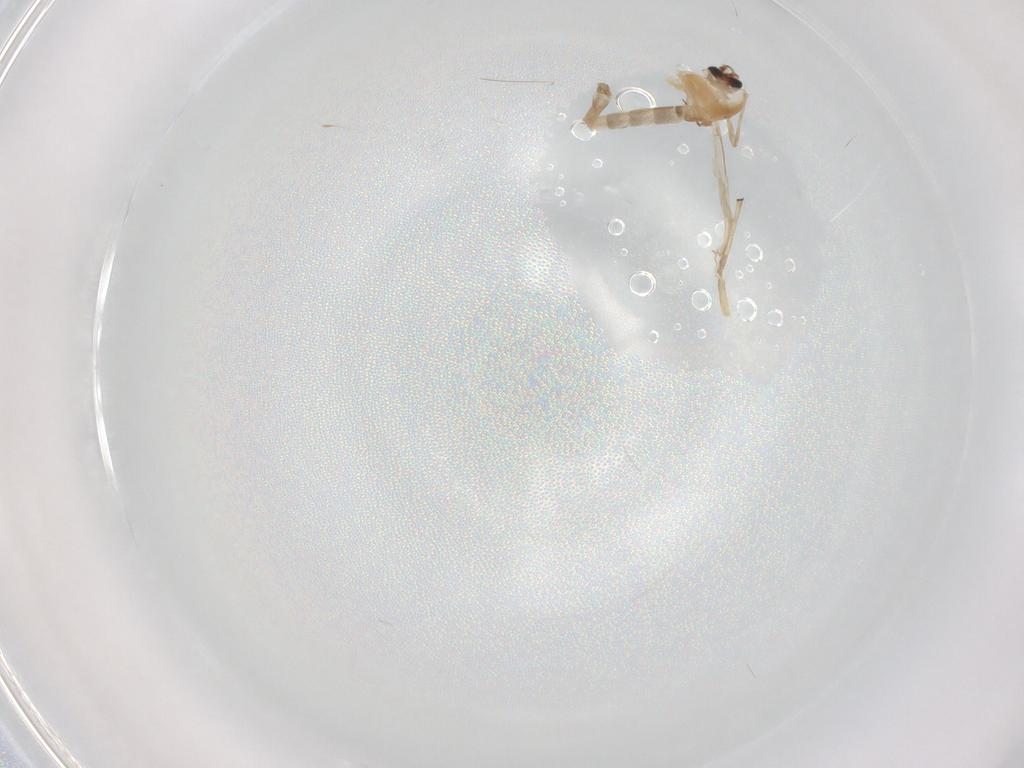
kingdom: Animalia
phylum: Arthropoda
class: Insecta
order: Diptera
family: Chironomidae
